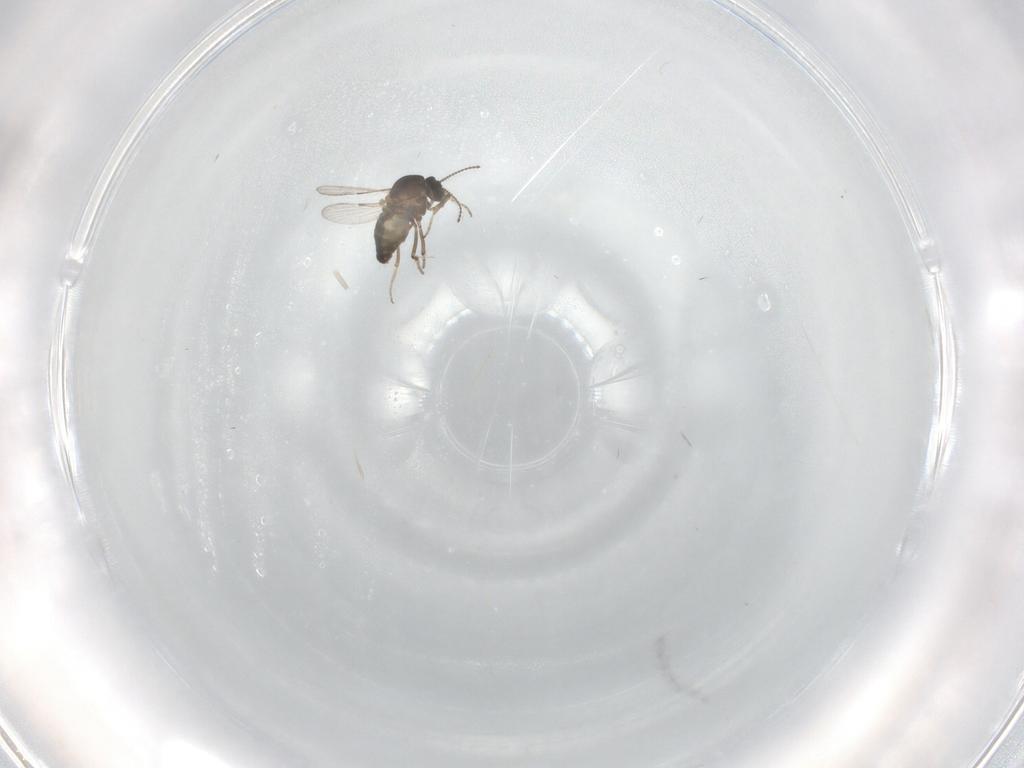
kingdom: Animalia
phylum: Arthropoda
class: Insecta
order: Diptera
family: Ceratopogonidae
